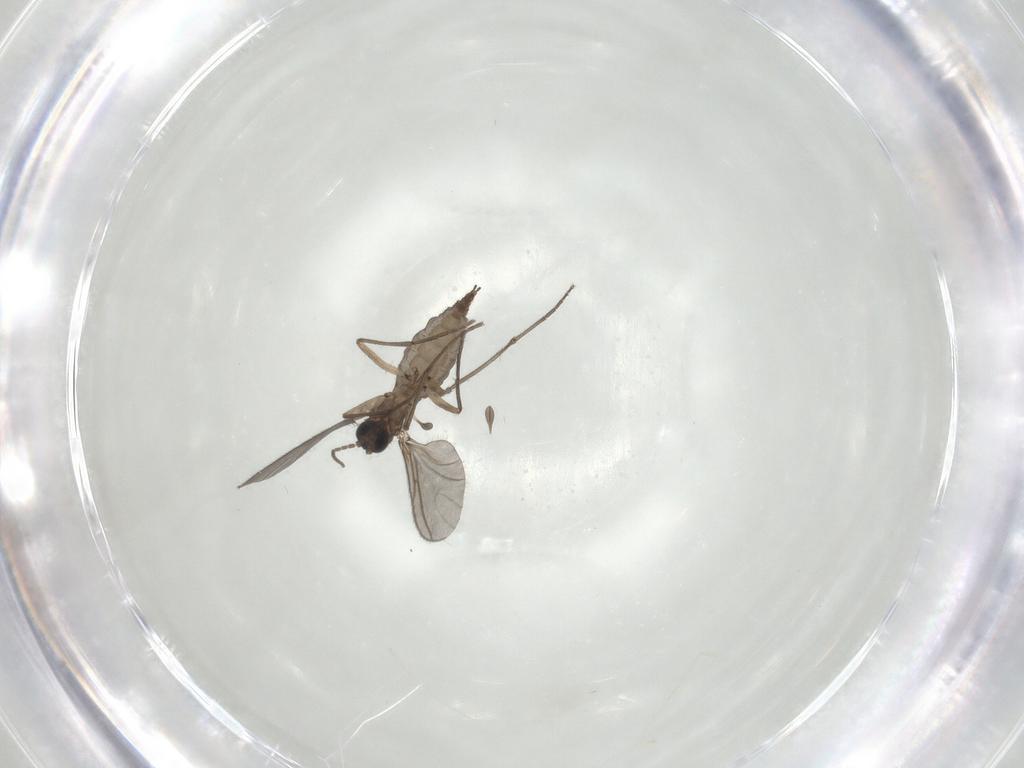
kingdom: Animalia
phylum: Arthropoda
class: Insecta
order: Diptera
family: Sciaridae
